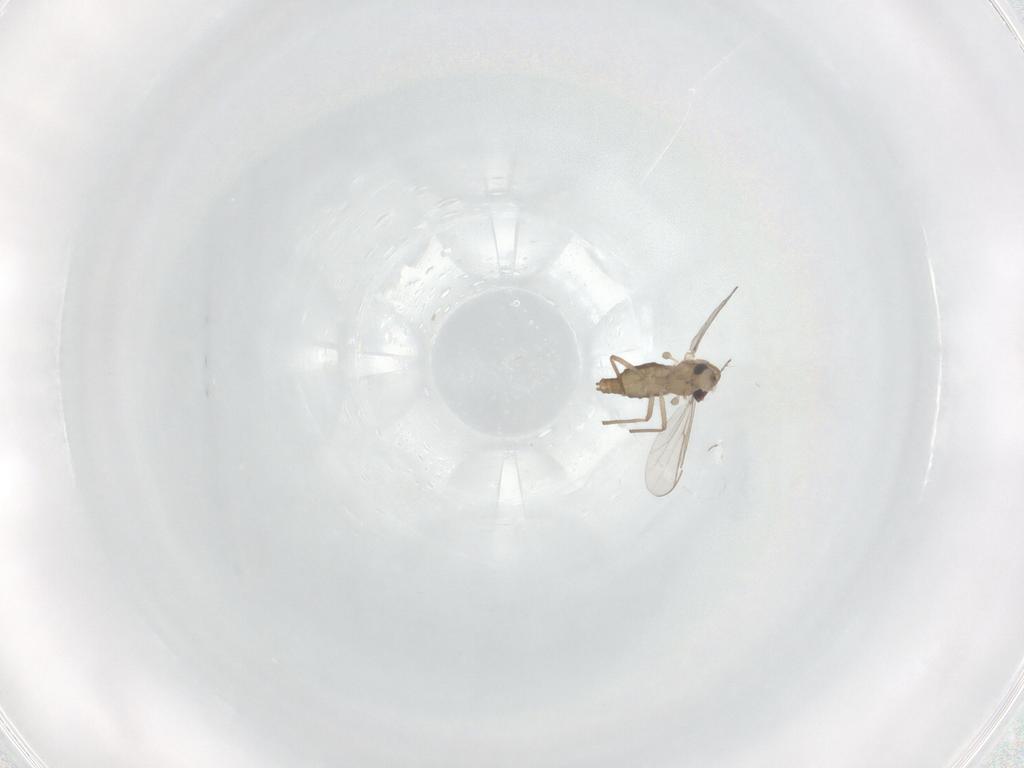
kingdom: Animalia
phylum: Arthropoda
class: Insecta
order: Diptera
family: Chironomidae
